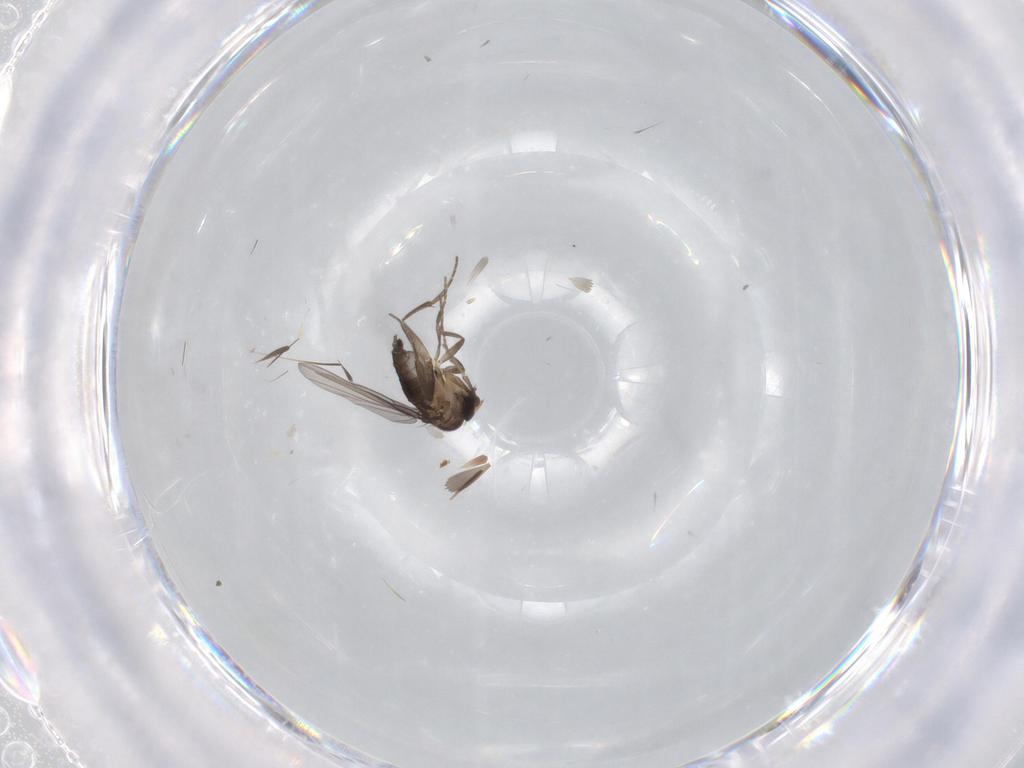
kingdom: Animalia
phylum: Arthropoda
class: Insecta
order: Diptera
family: Phoridae
